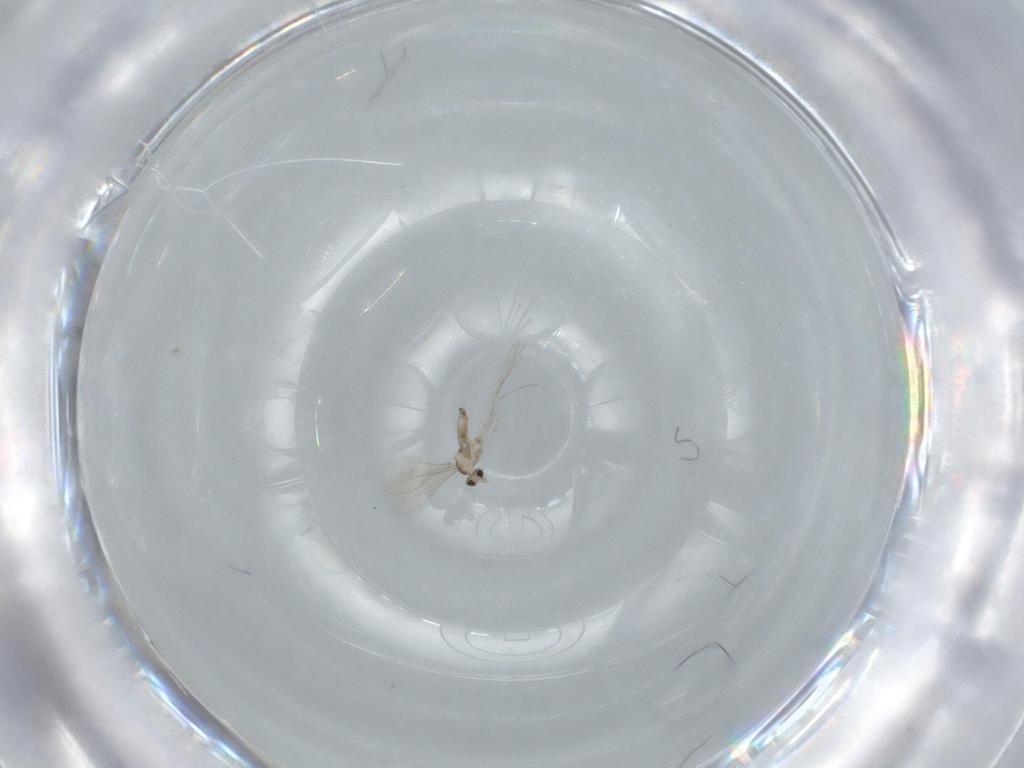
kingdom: Animalia
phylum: Arthropoda
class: Insecta
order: Diptera
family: Cecidomyiidae
